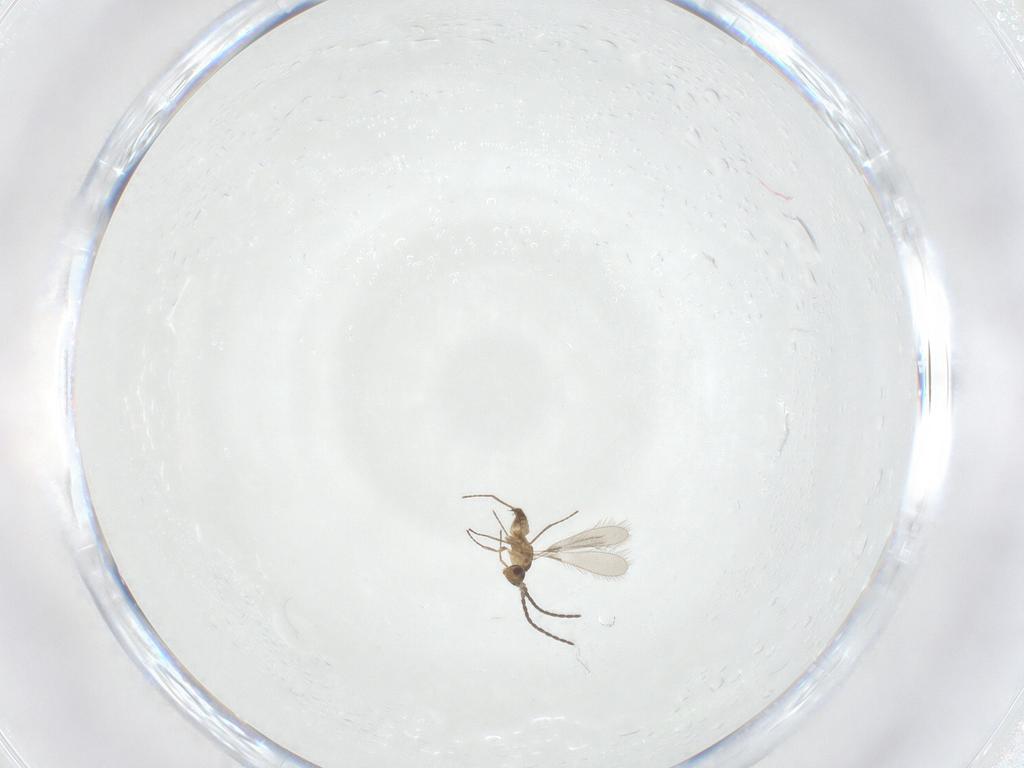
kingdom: Animalia
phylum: Arthropoda
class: Insecta
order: Hymenoptera
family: Mymaridae
